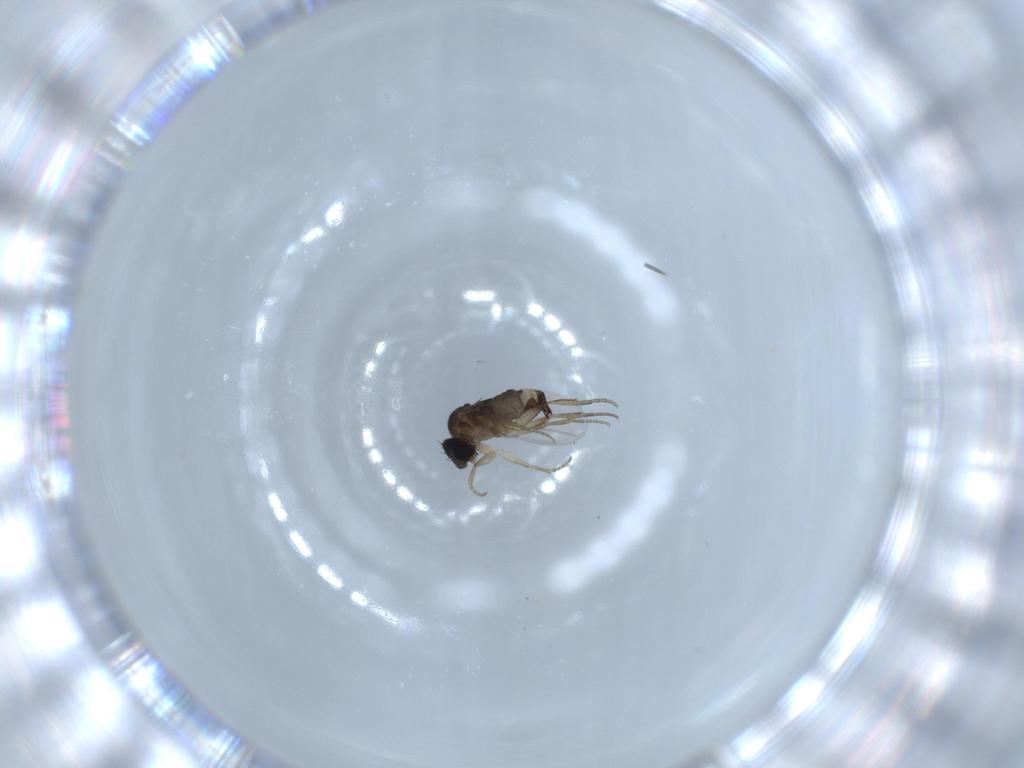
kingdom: Animalia
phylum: Arthropoda
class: Insecta
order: Diptera
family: Phoridae
